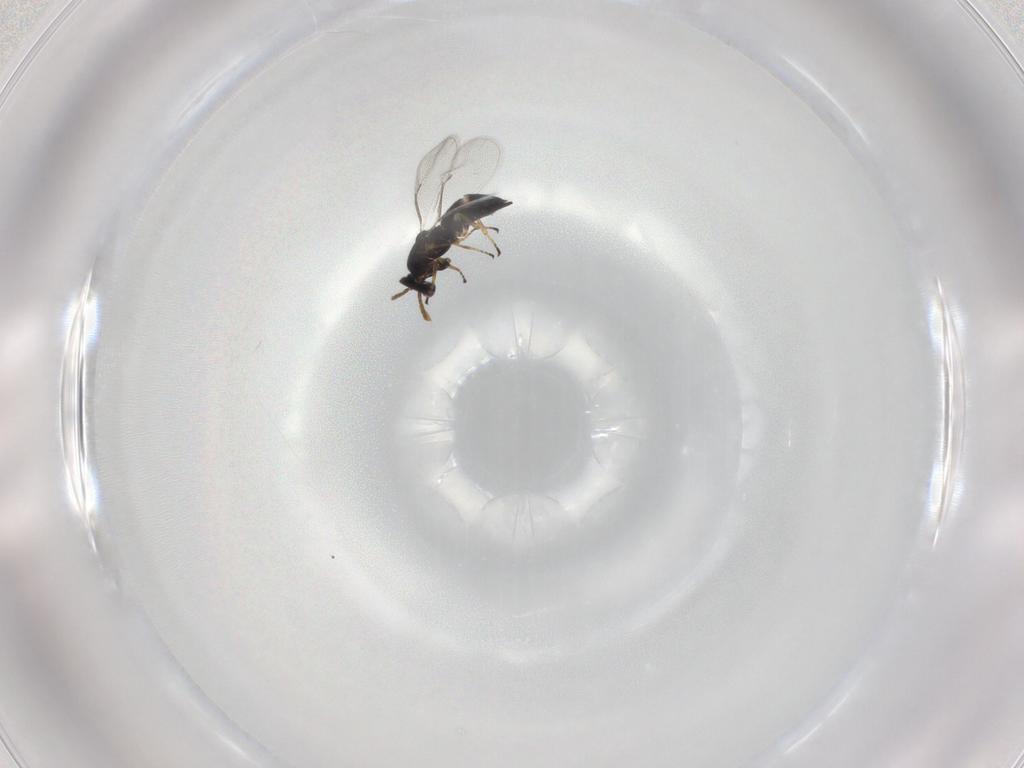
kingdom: Animalia
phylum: Arthropoda
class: Insecta
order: Hymenoptera
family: Eulophidae
